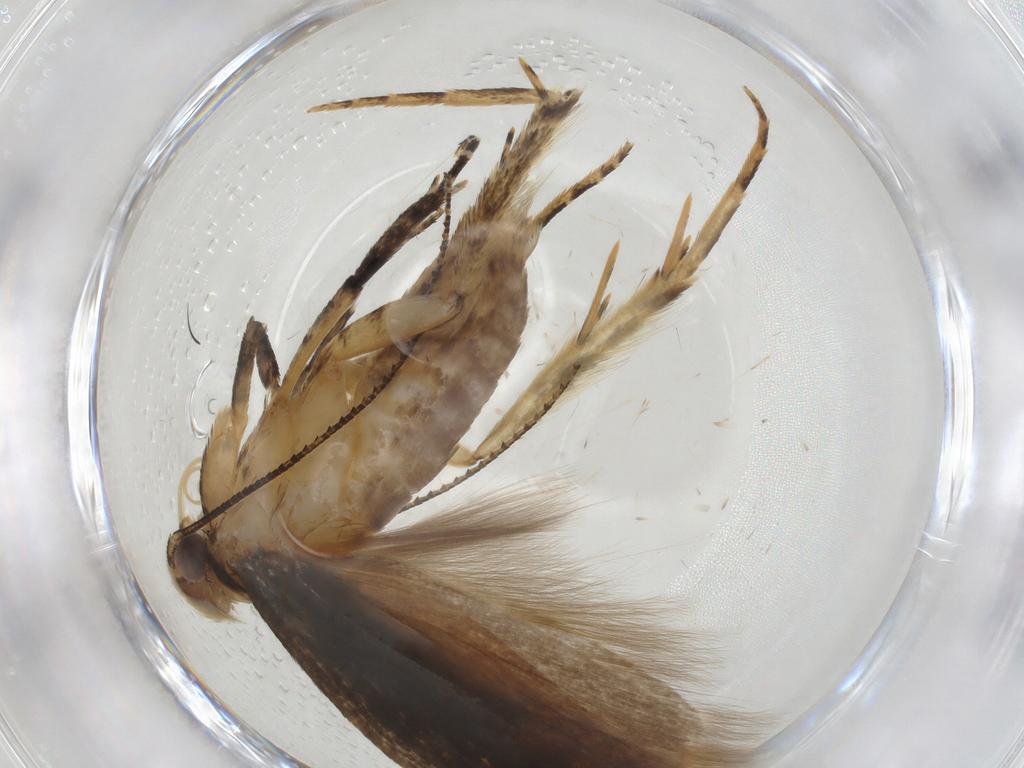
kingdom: Animalia
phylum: Arthropoda
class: Insecta
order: Lepidoptera
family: Gelechiidae
